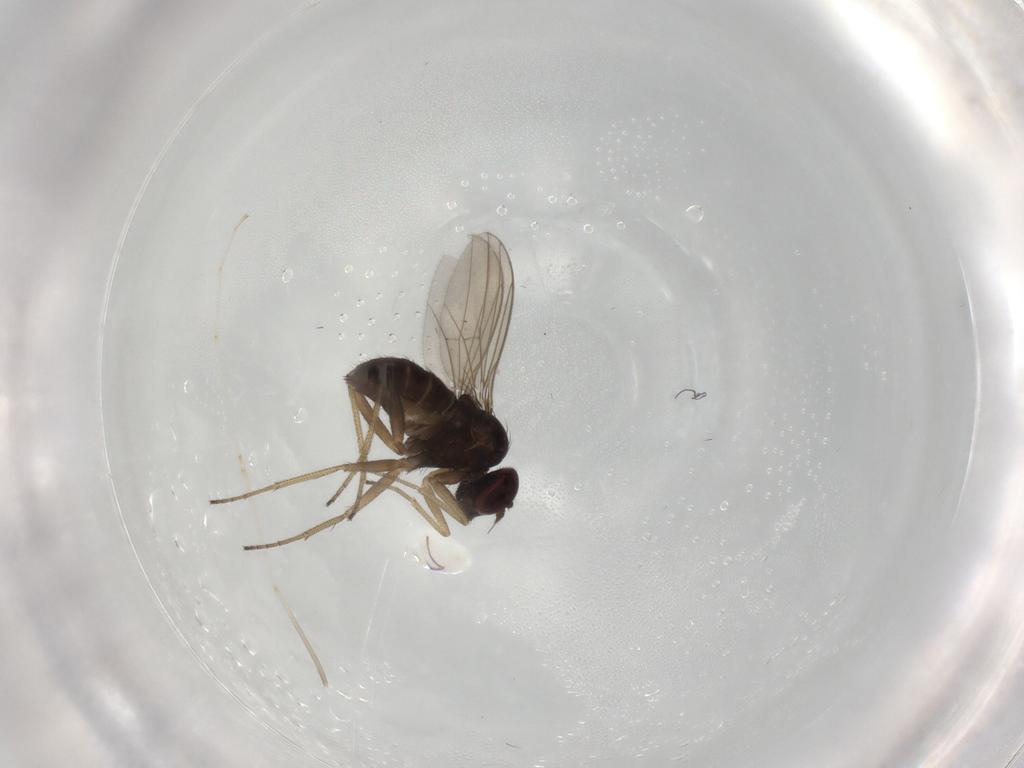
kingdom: Animalia
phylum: Arthropoda
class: Insecta
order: Diptera
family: Dolichopodidae
